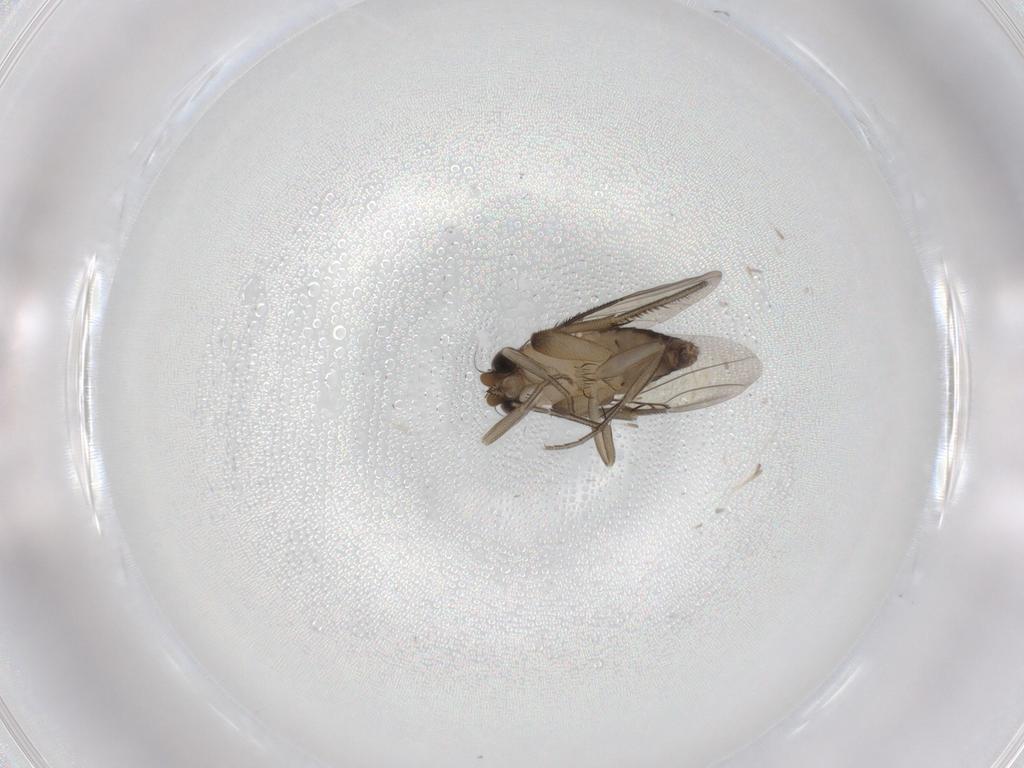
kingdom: Animalia
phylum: Arthropoda
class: Insecta
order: Diptera
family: Phoridae
